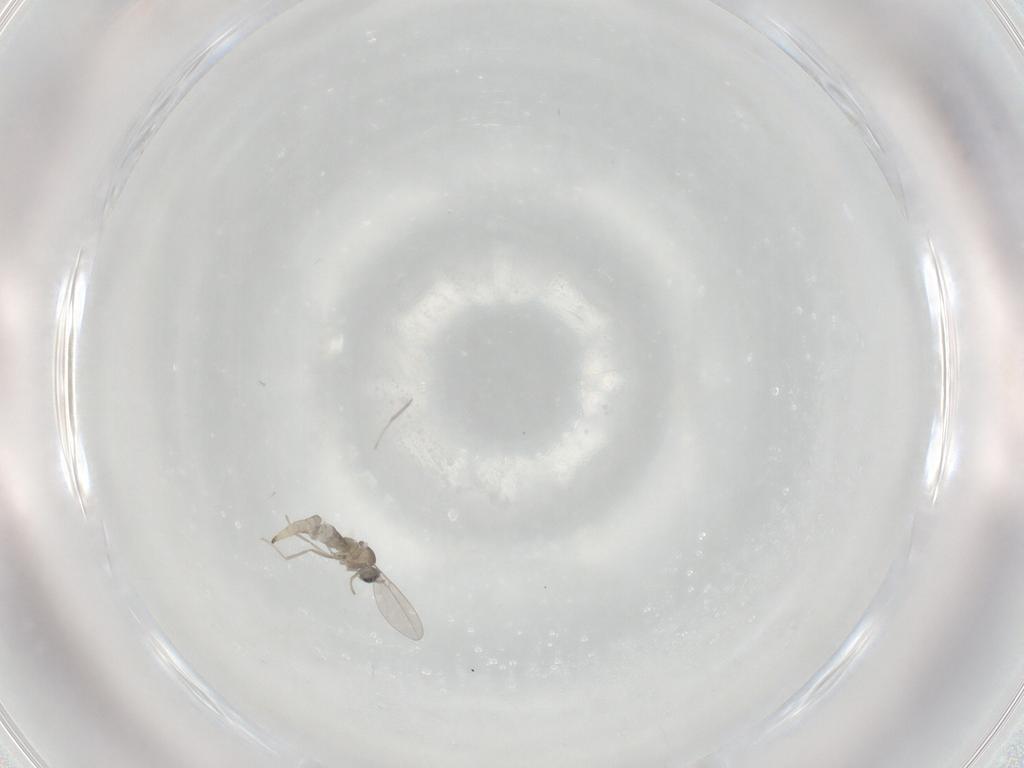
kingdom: Animalia
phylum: Arthropoda
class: Insecta
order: Diptera
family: Cecidomyiidae
